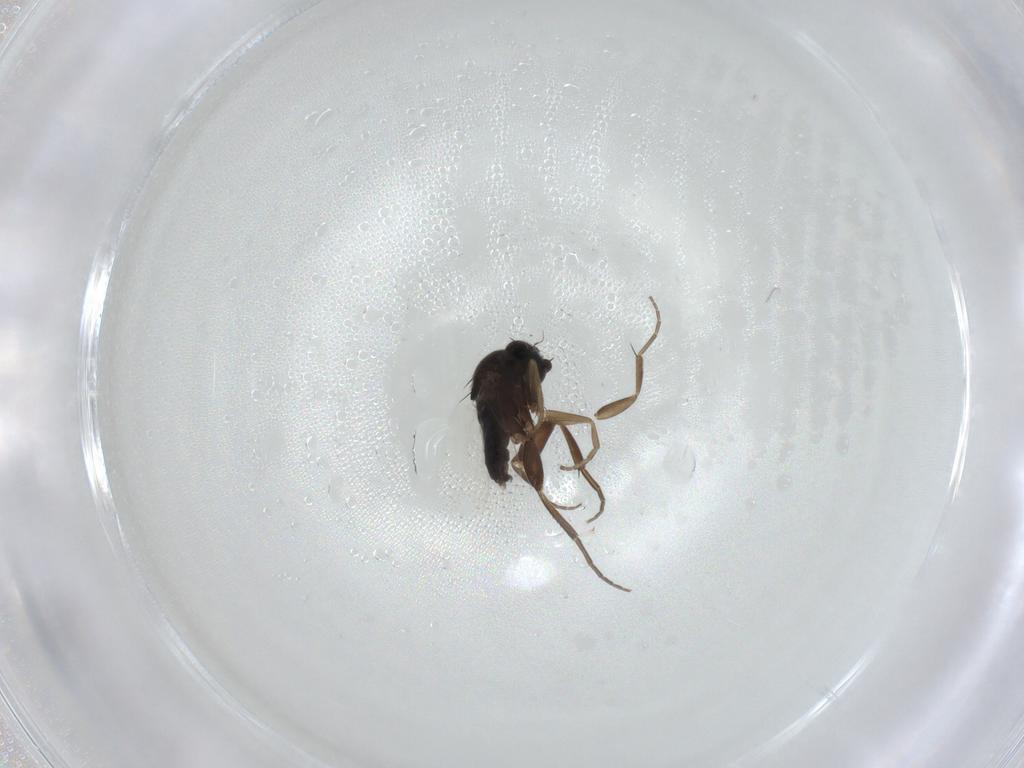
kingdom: Animalia
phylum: Arthropoda
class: Insecta
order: Diptera
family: Phoridae
